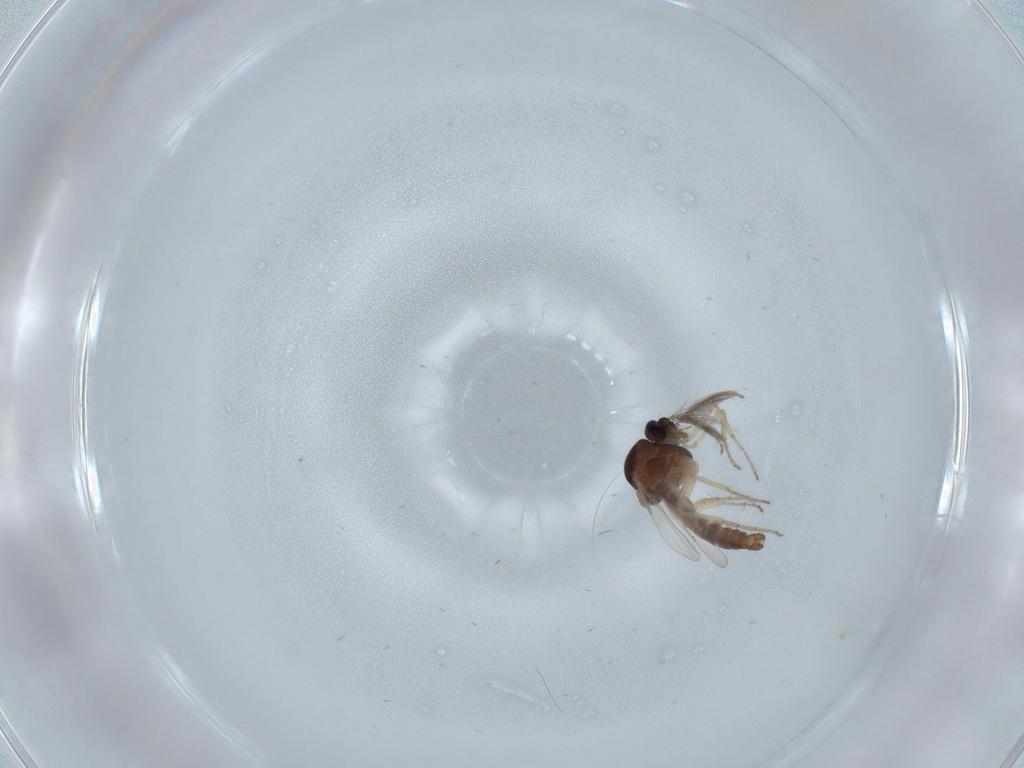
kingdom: Animalia
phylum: Arthropoda
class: Insecta
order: Diptera
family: Ceratopogonidae
